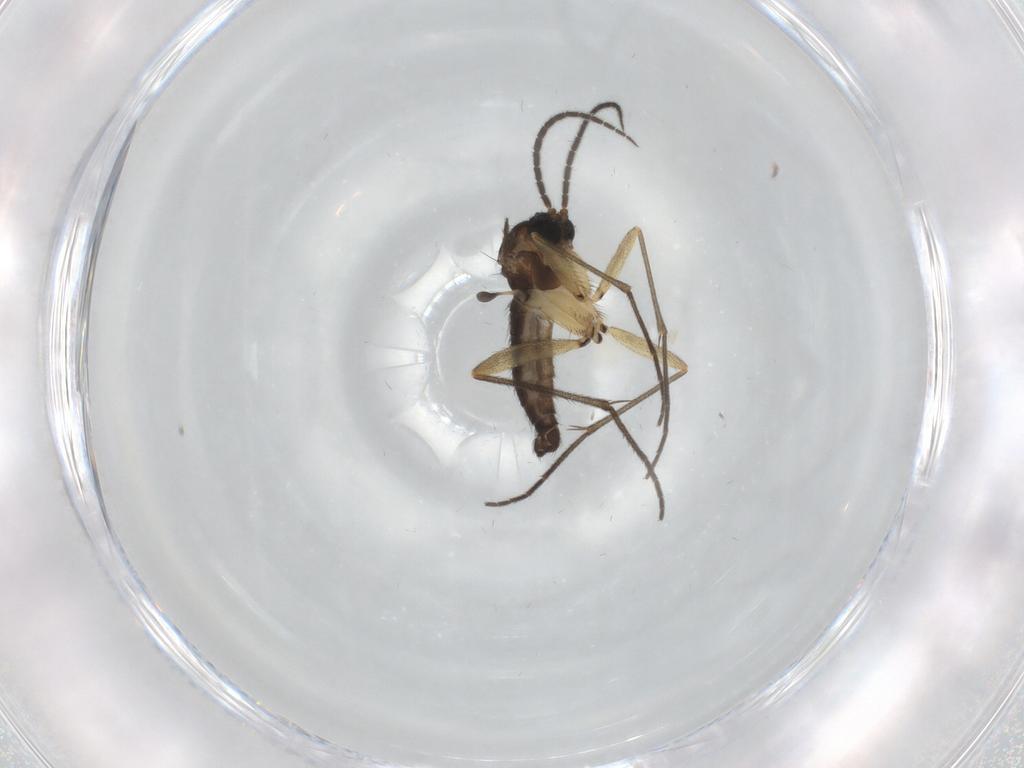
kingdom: Animalia
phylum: Arthropoda
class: Insecta
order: Diptera
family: Sciaridae
